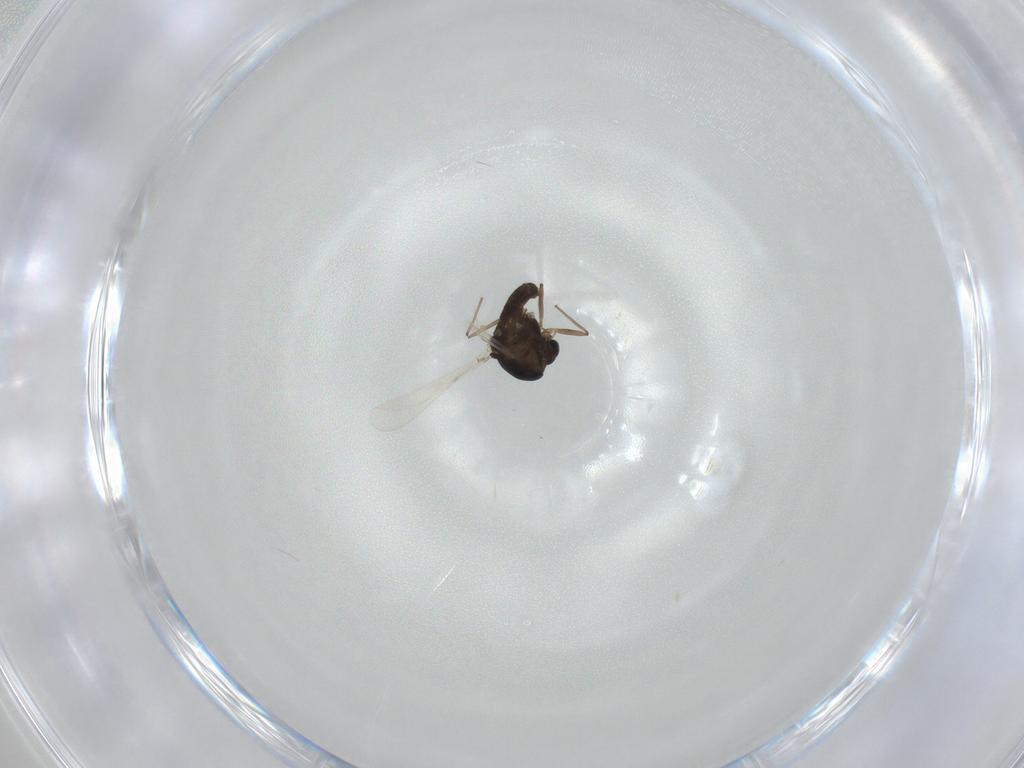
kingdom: Animalia
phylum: Arthropoda
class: Insecta
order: Diptera
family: Chironomidae
